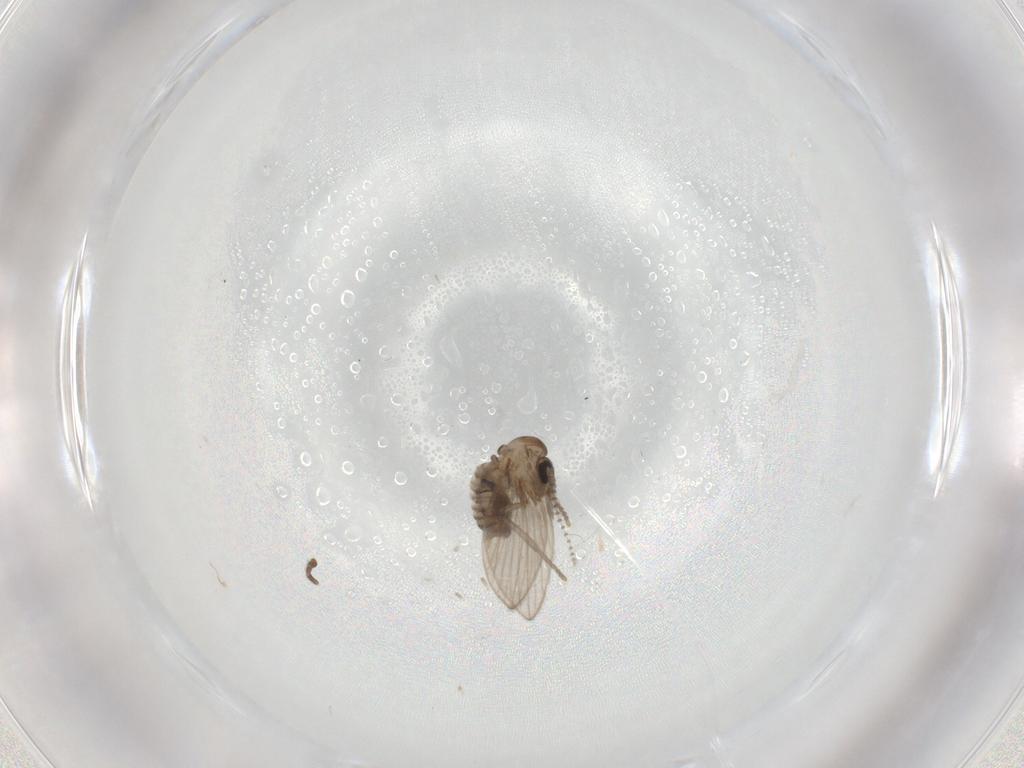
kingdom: Animalia
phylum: Arthropoda
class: Insecta
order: Diptera
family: Psychodidae
